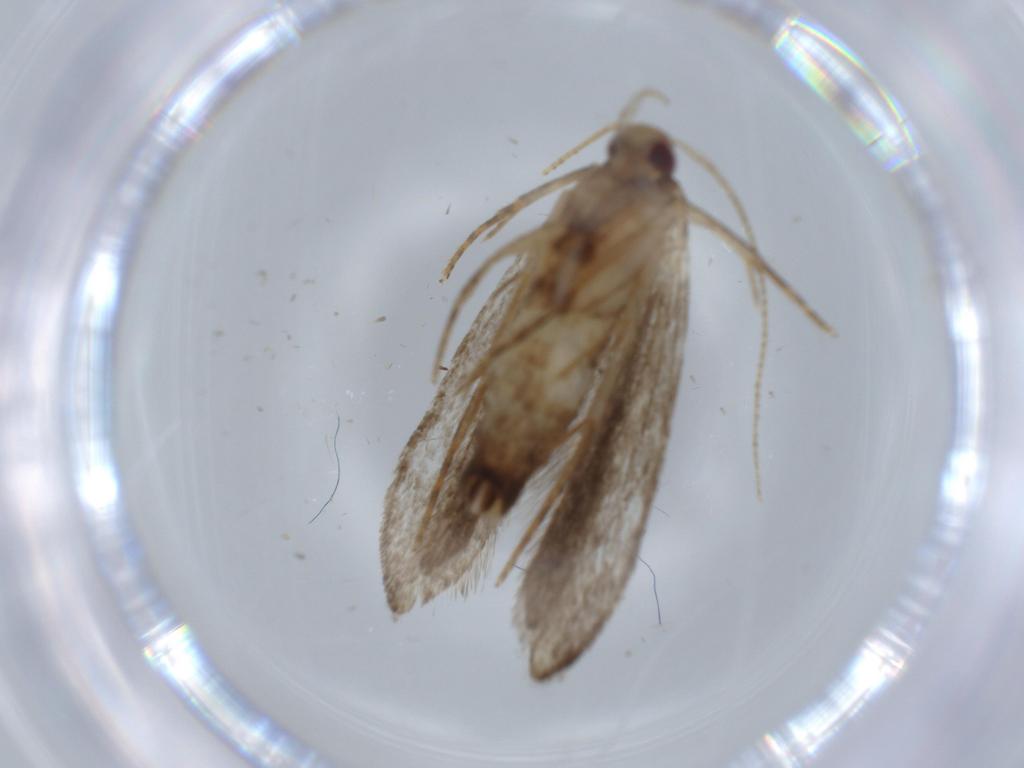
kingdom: Animalia
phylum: Arthropoda
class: Insecta
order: Lepidoptera
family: Gelechiidae
